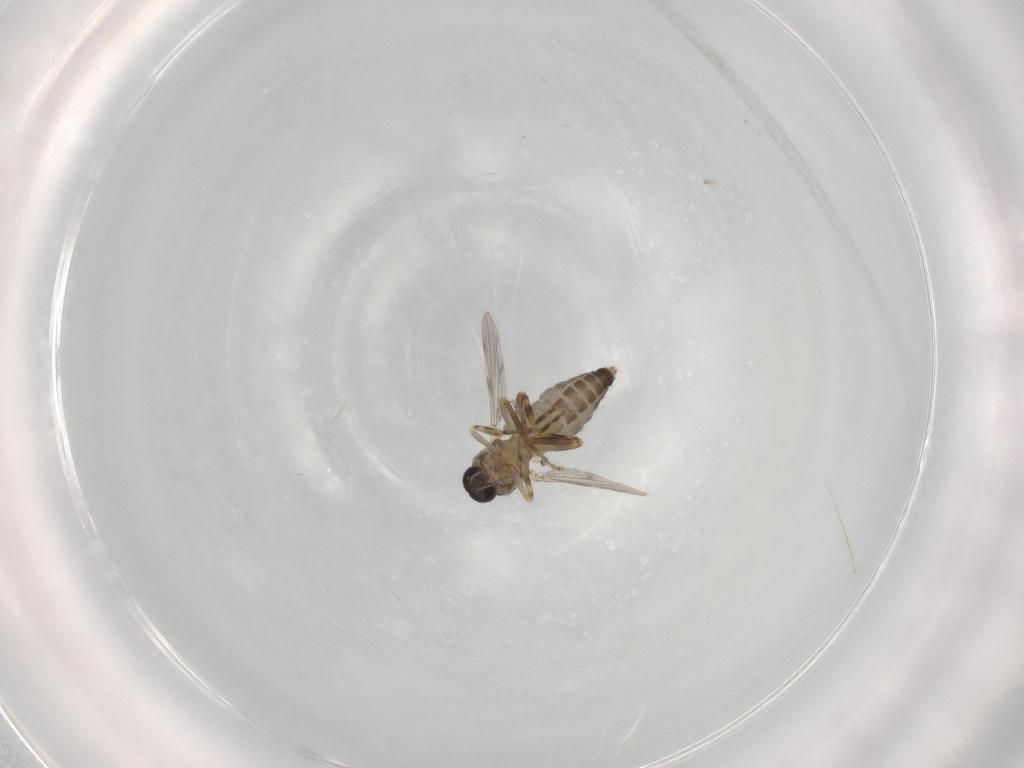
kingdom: Animalia
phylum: Arthropoda
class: Insecta
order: Diptera
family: Ceratopogonidae
